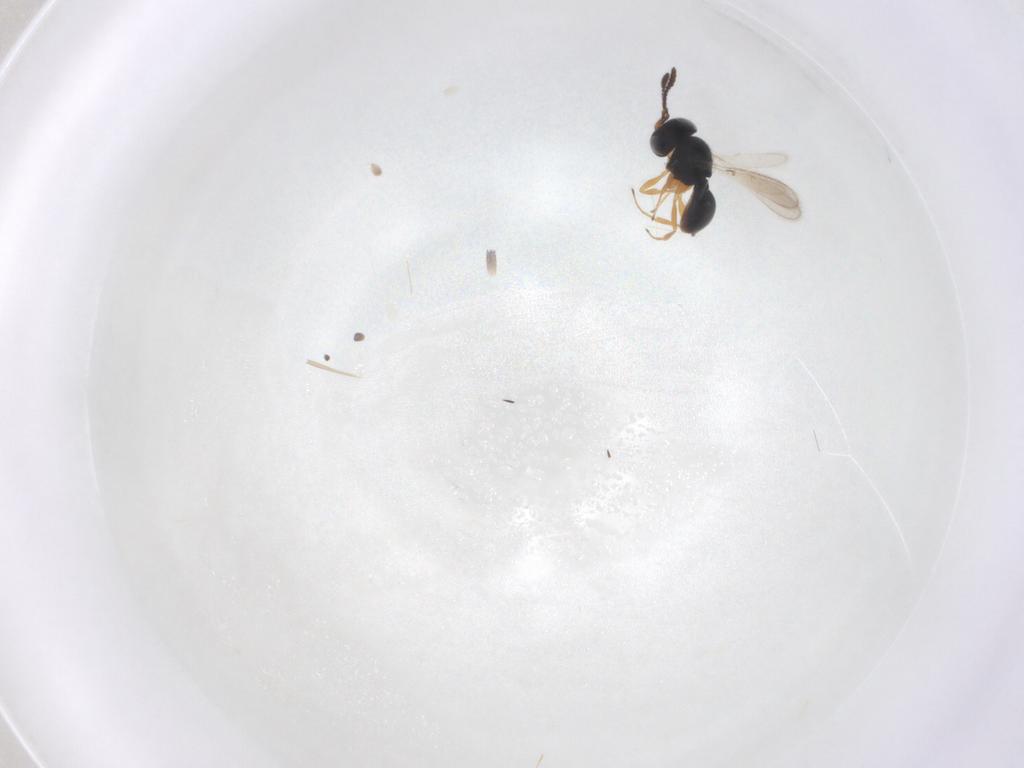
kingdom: Animalia
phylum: Arthropoda
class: Insecta
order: Hymenoptera
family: Scelionidae
